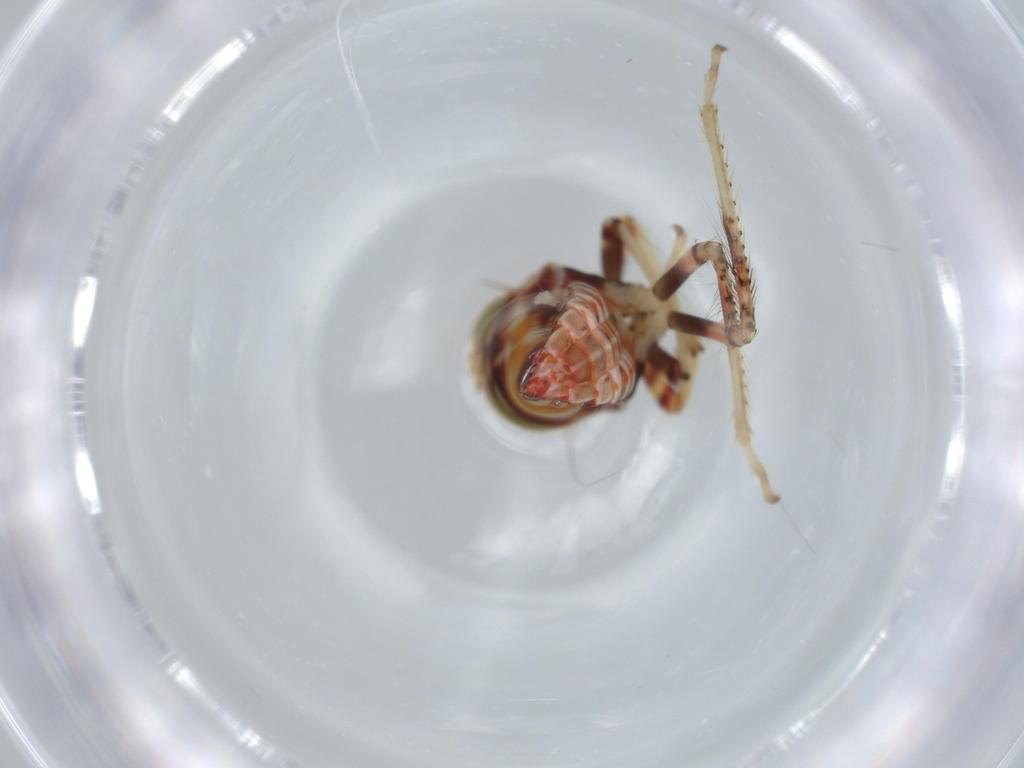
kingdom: Animalia
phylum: Arthropoda
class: Insecta
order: Hemiptera
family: Cicadellidae
